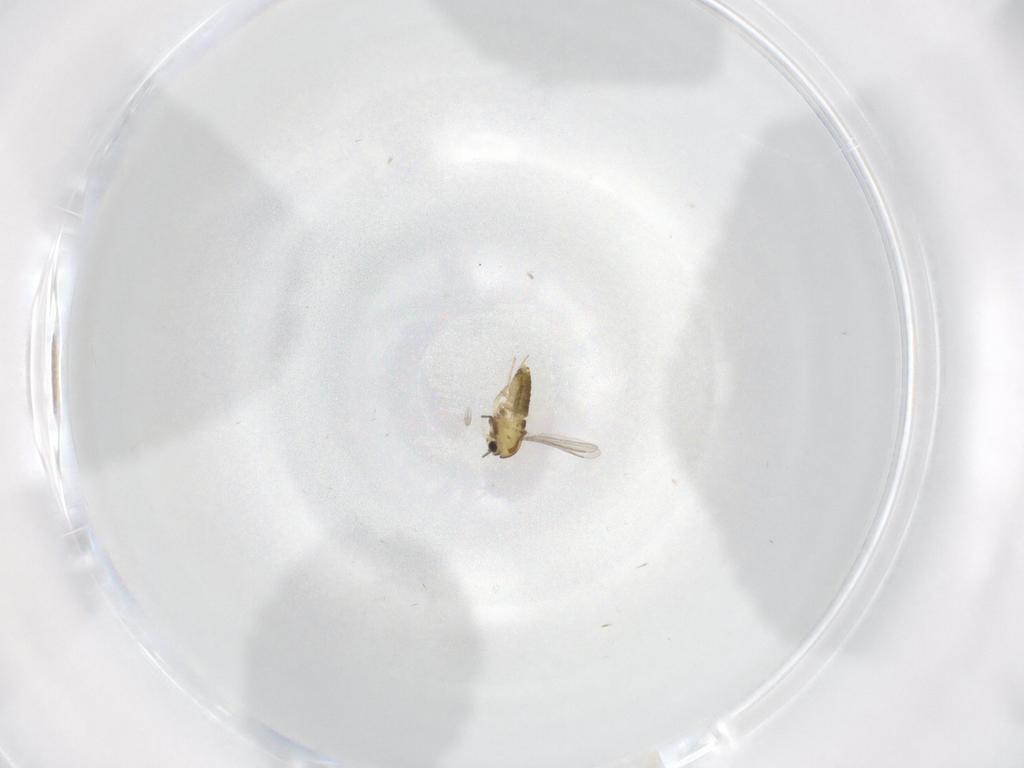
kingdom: Animalia
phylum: Arthropoda
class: Insecta
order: Diptera
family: Chironomidae
